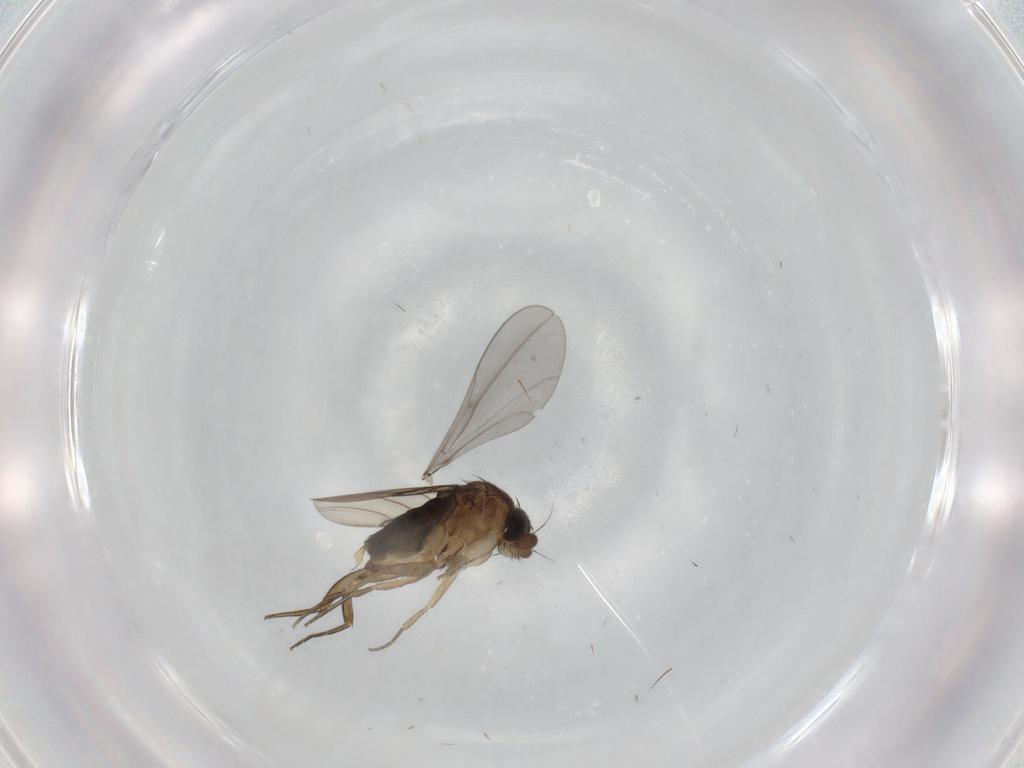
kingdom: Animalia
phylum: Arthropoda
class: Insecta
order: Diptera
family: Phoridae
